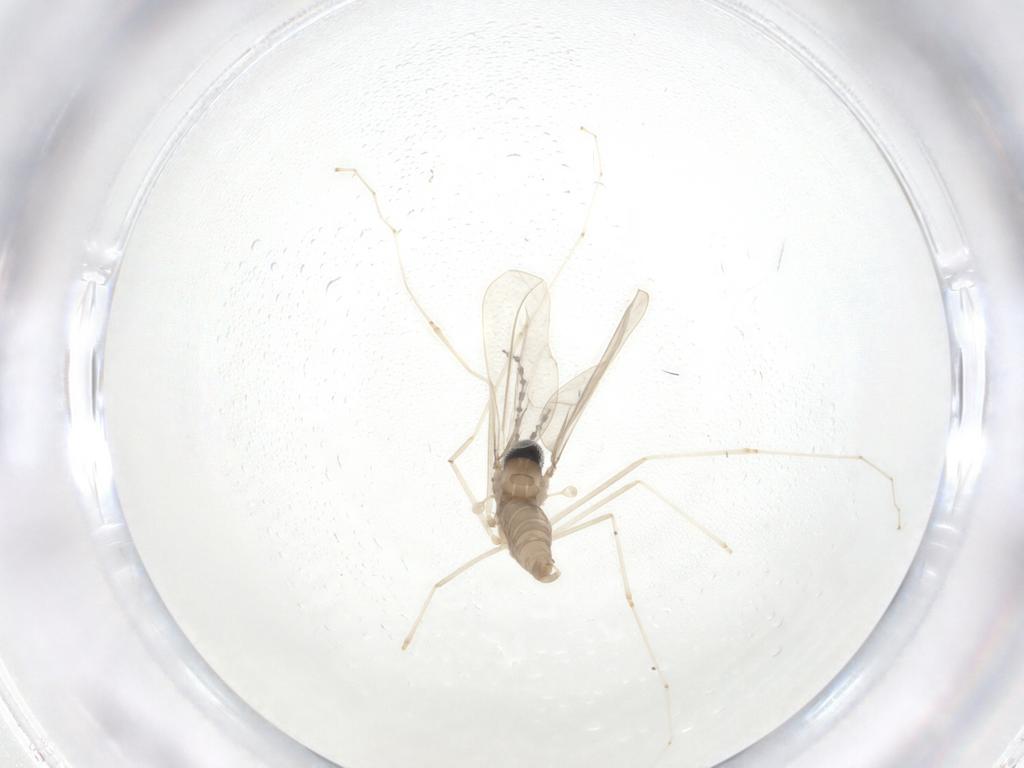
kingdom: Animalia
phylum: Arthropoda
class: Insecta
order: Diptera
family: Cecidomyiidae
